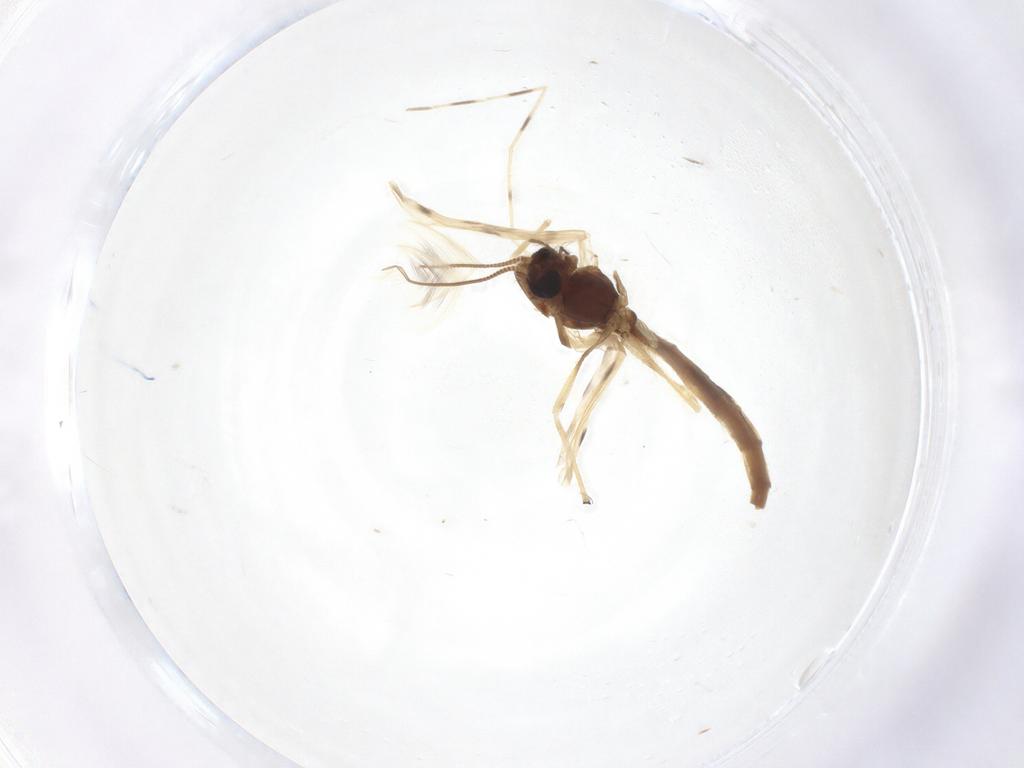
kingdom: Animalia
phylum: Arthropoda
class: Insecta
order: Diptera
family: Chironomidae
